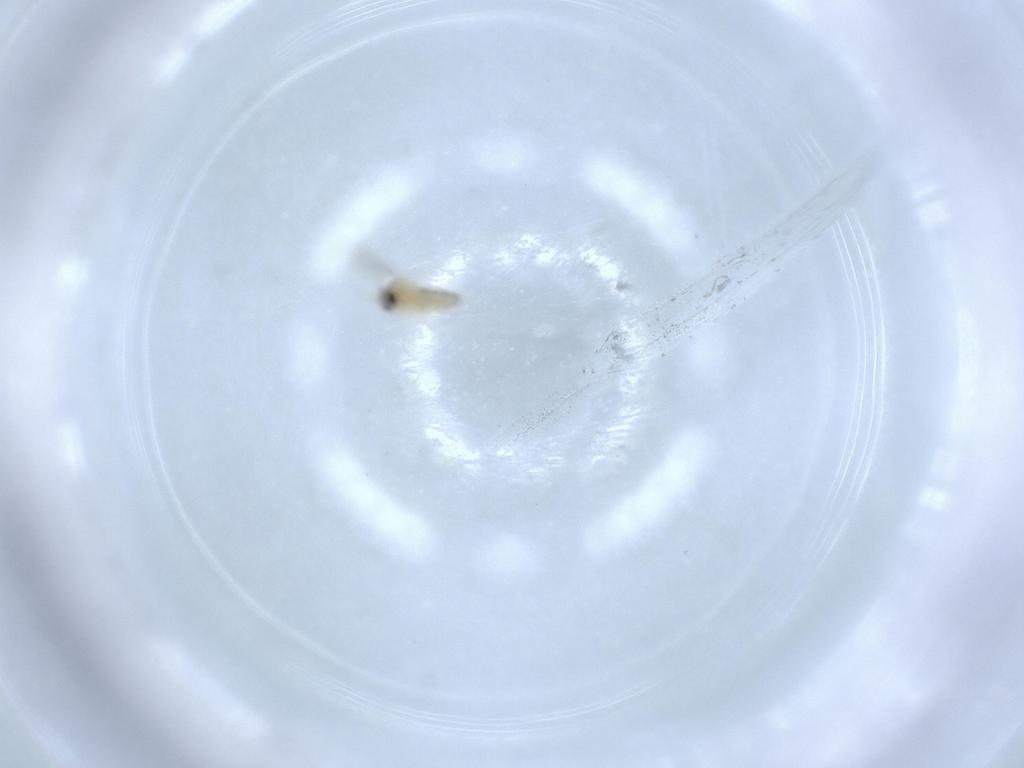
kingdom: Animalia
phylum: Arthropoda
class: Insecta
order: Diptera
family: Cecidomyiidae
